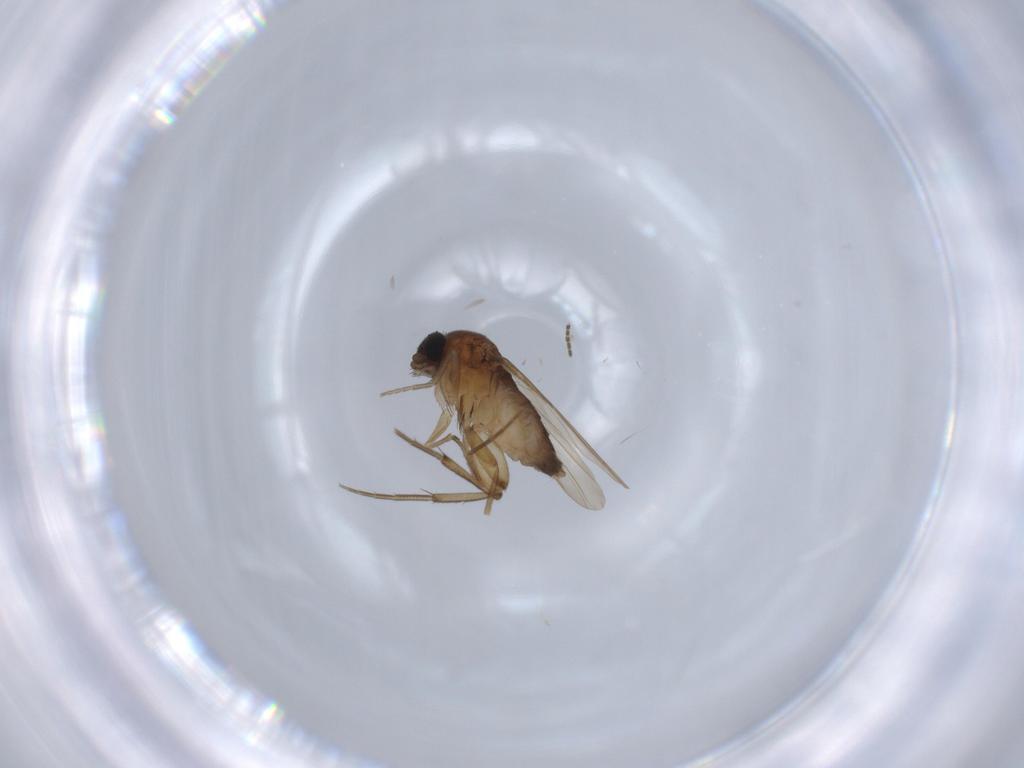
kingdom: Animalia
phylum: Arthropoda
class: Insecta
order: Diptera
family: Phoridae
